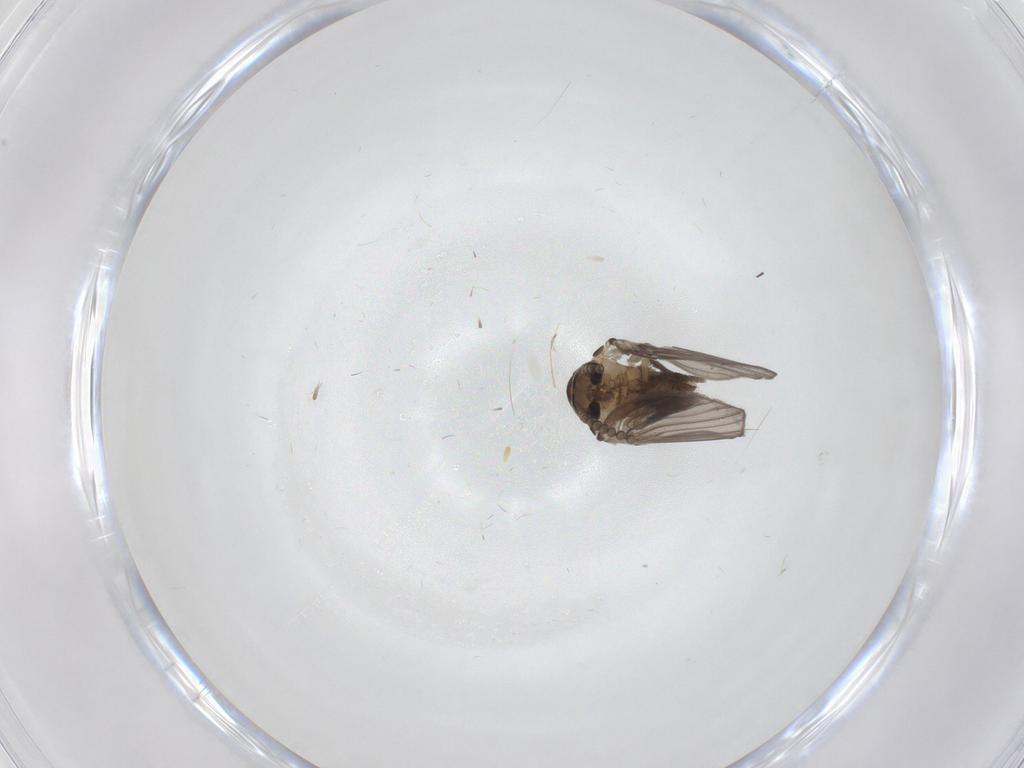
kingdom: Animalia
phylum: Arthropoda
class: Insecta
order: Diptera
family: Psychodidae
